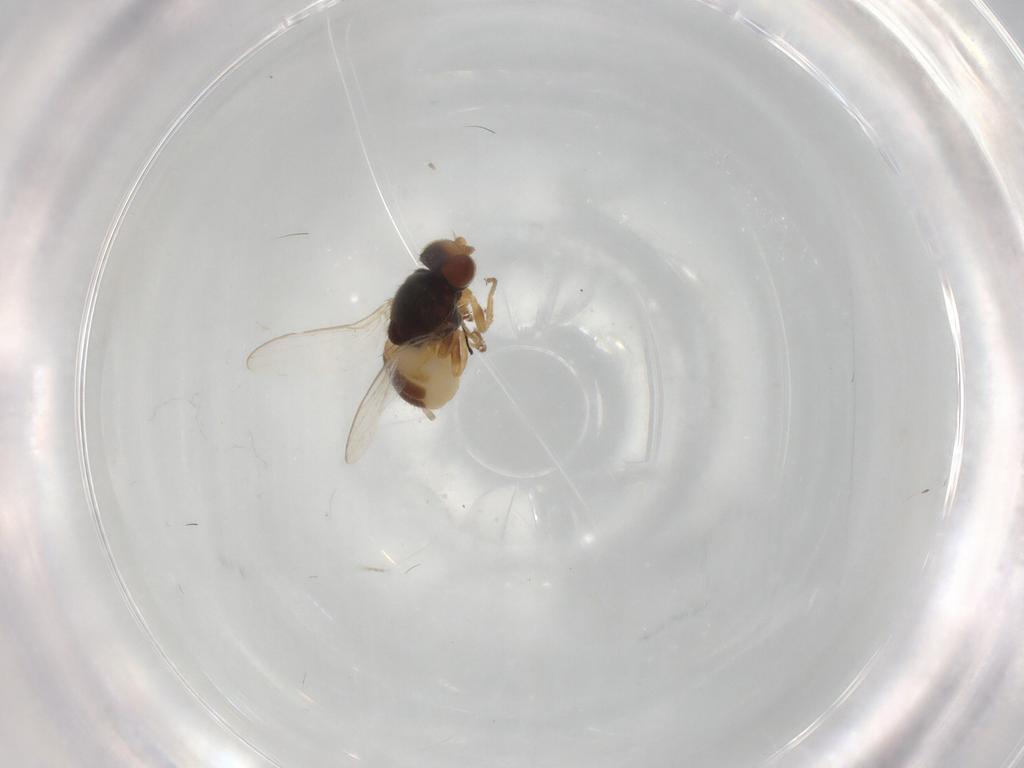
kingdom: Animalia
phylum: Arthropoda
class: Insecta
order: Diptera
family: Chloropidae
